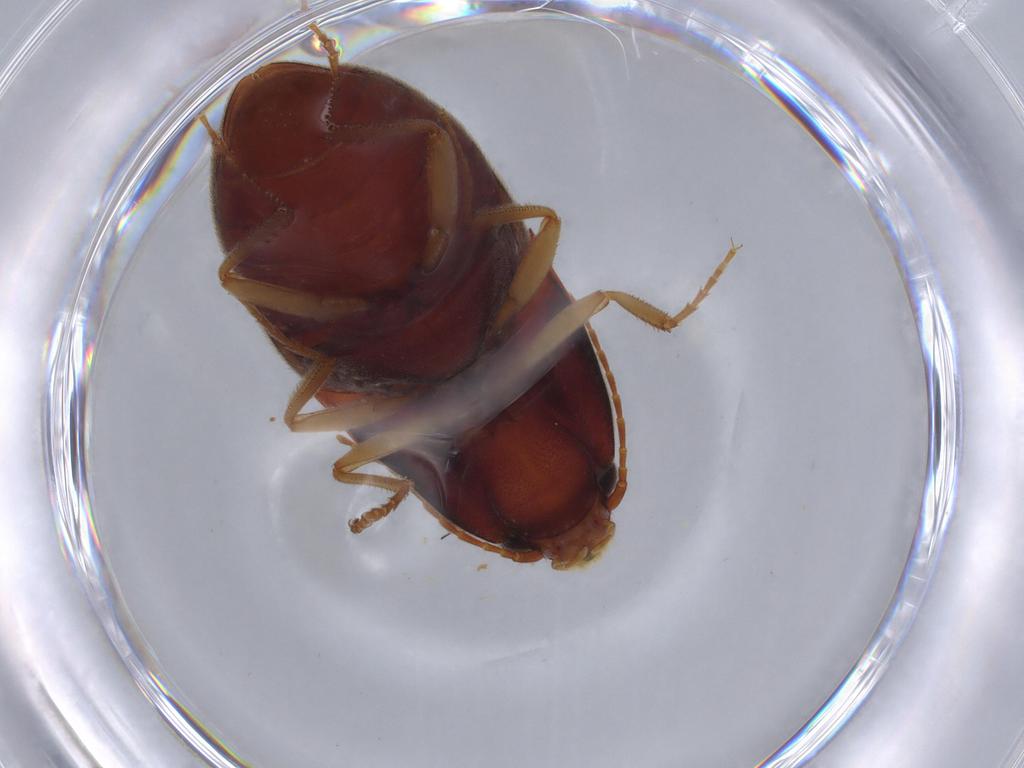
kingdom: Animalia
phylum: Arthropoda
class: Insecta
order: Coleoptera
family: Elateridae
